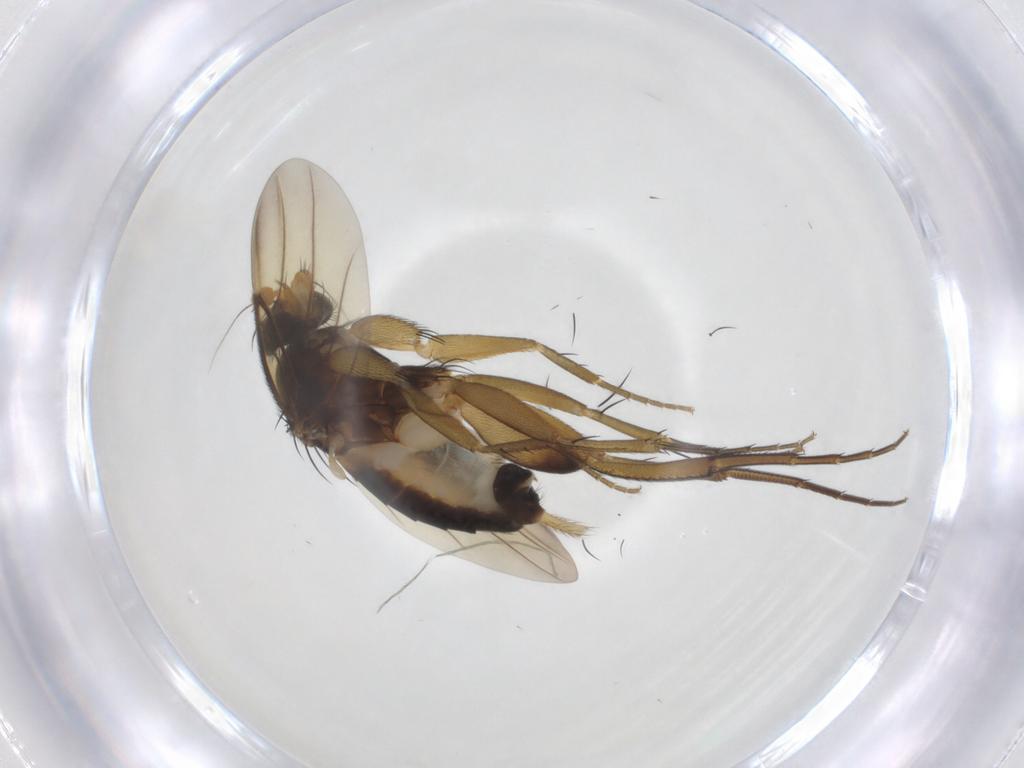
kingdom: Animalia
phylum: Arthropoda
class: Insecta
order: Diptera
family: Phoridae
